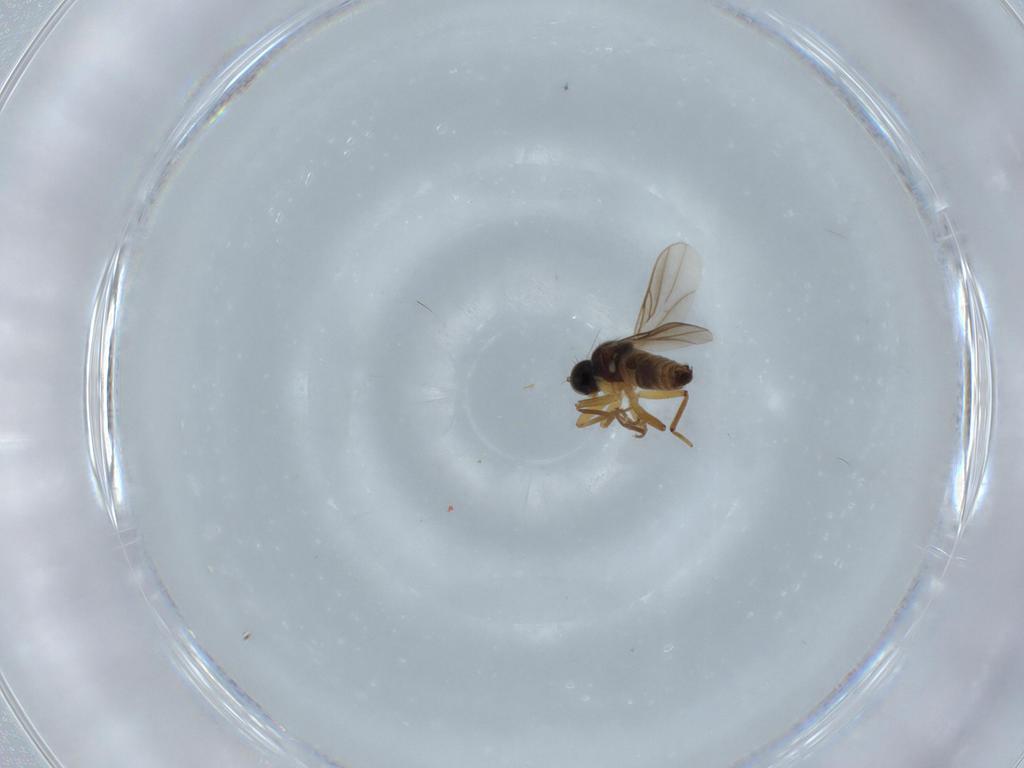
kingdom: Animalia
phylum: Arthropoda
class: Insecta
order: Diptera
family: Hybotidae
